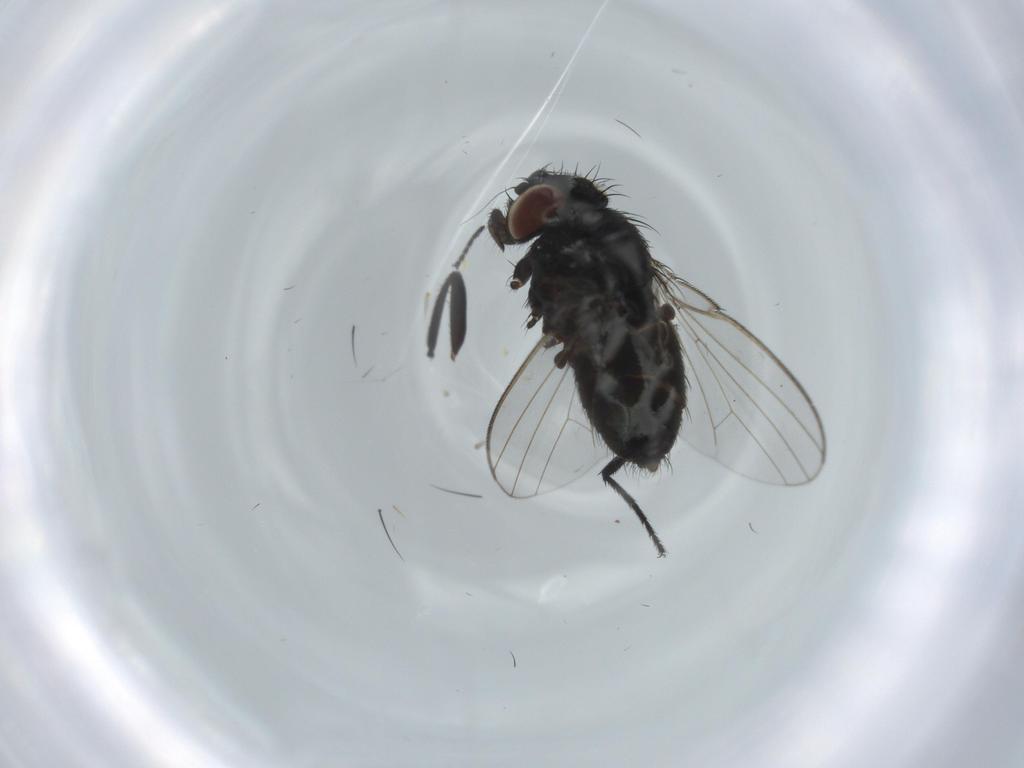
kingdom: Animalia
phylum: Arthropoda
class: Insecta
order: Diptera
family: Milichiidae
